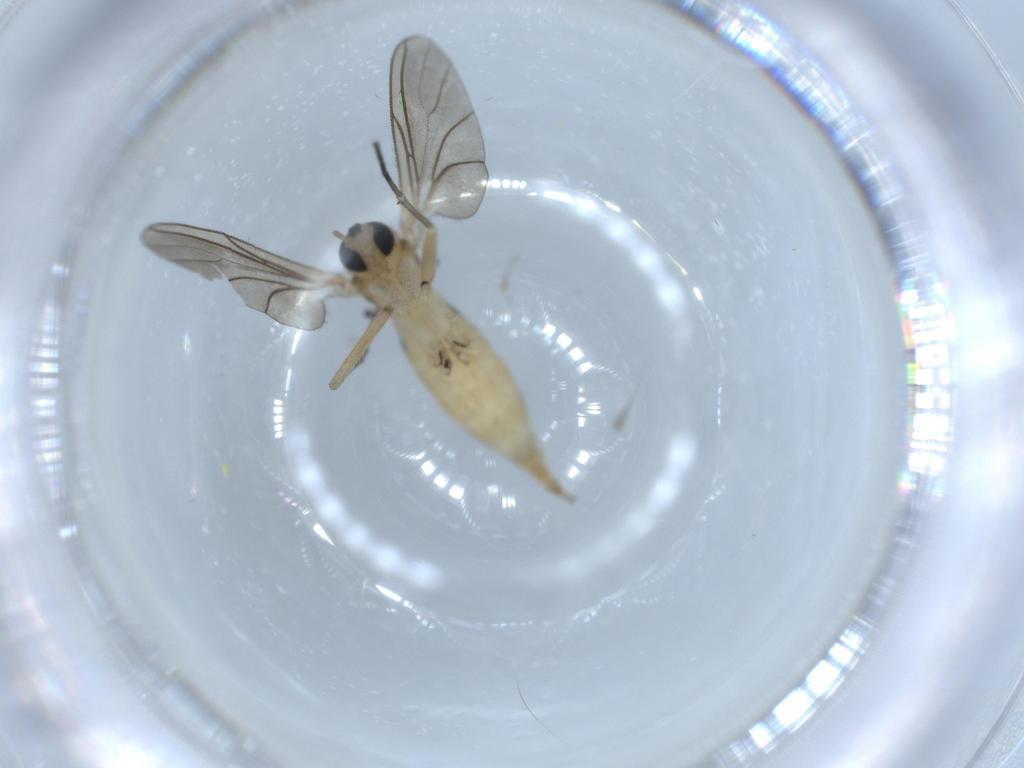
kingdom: Animalia
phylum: Arthropoda
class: Insecta
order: Diptera
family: Sciaridae
